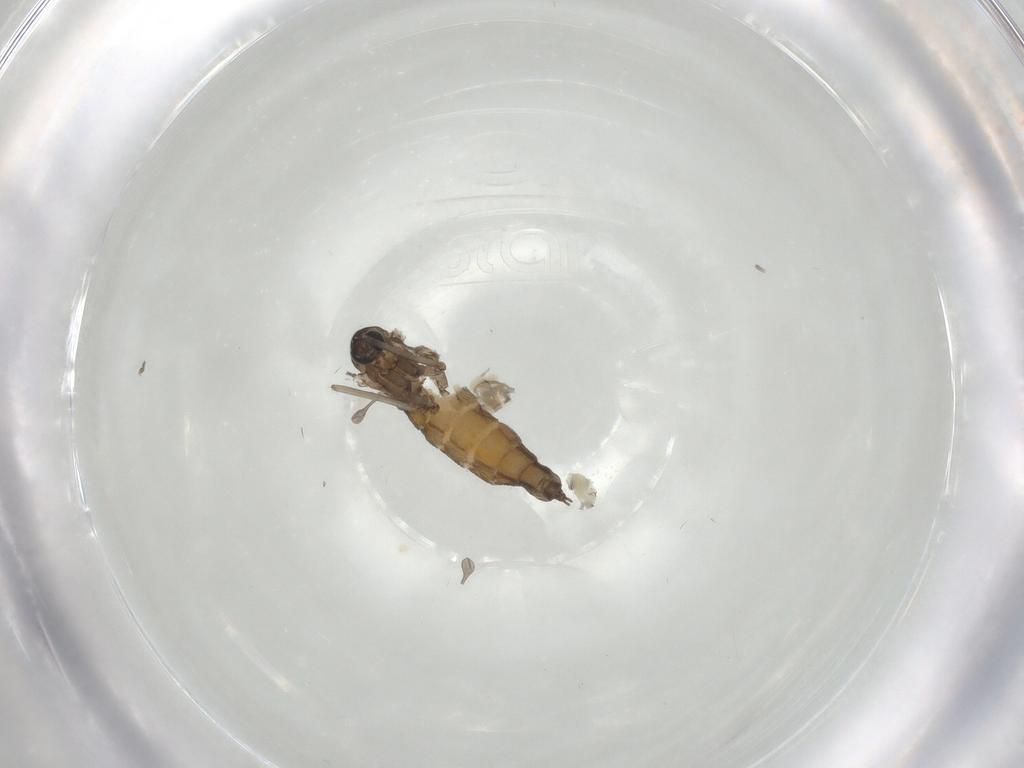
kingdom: Animalia
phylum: Arthropoda
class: Insecta
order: Diptera
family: Cecidomyiidae
